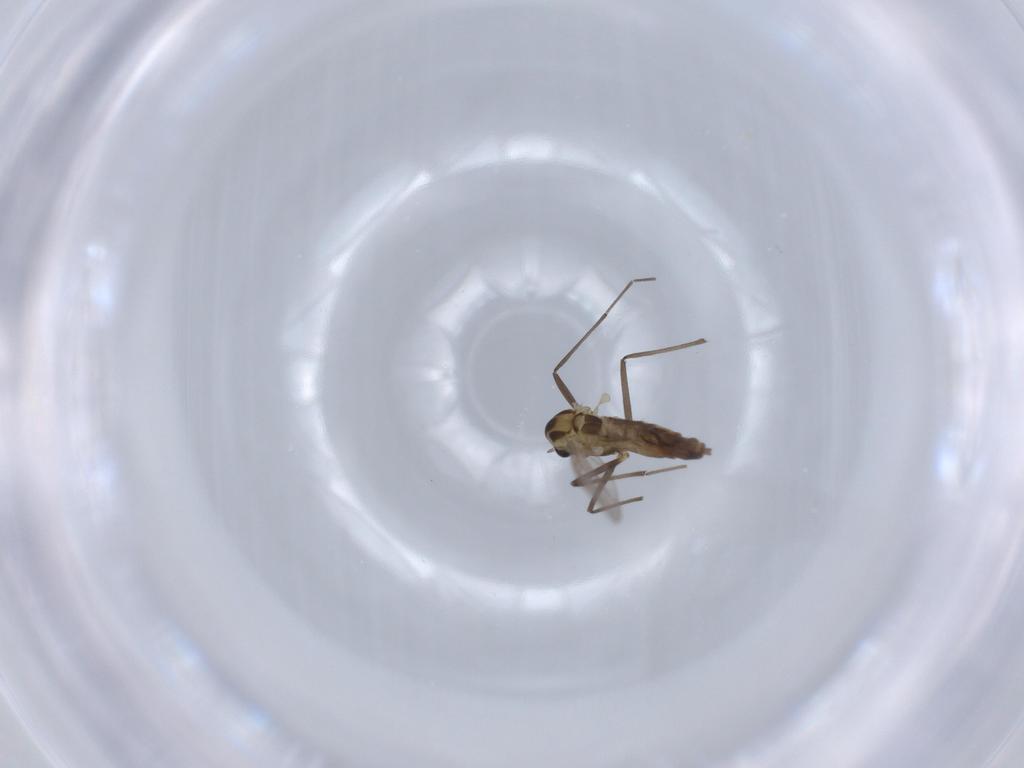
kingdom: Animalia
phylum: Arthropoda
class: Insecta
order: Diptera
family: Chironomidae
